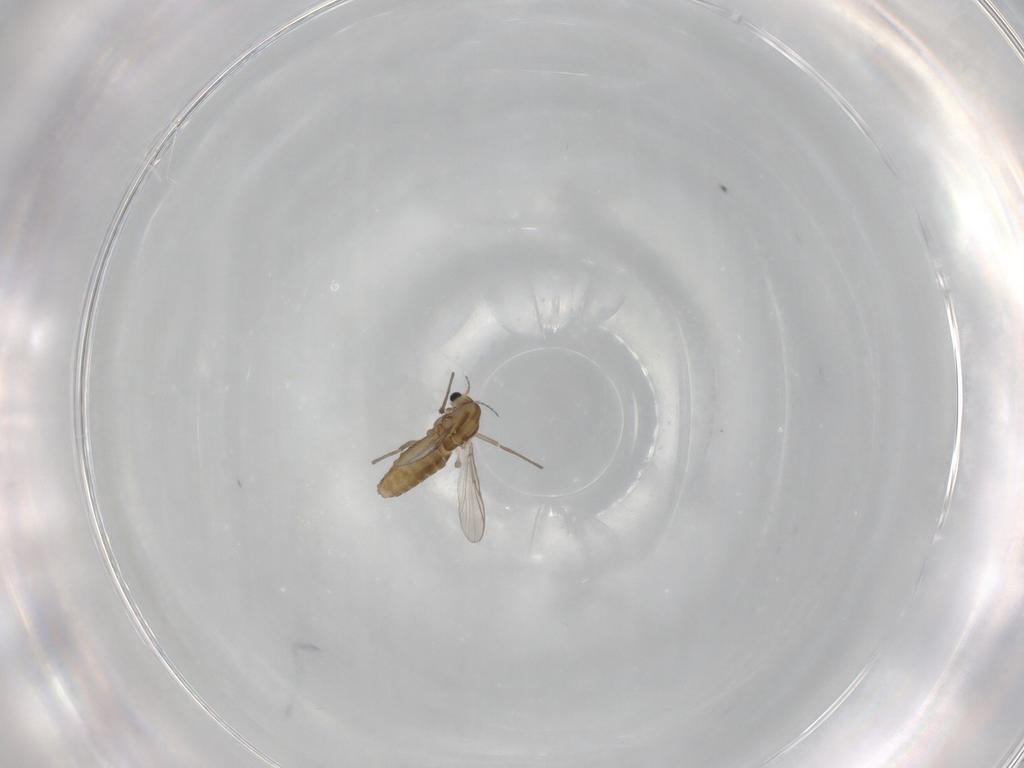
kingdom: Animalia
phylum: Arthropoda
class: Insecta
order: Diptera
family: Chironomidae
